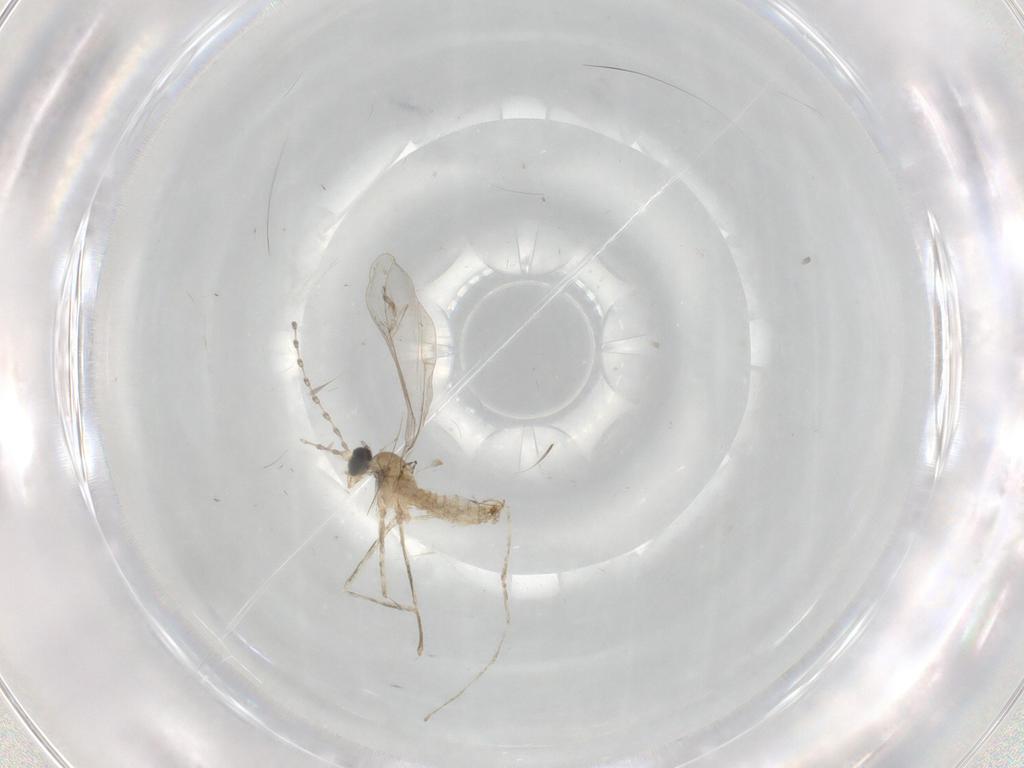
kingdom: Animalia
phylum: Arthropoda
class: Insecta
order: Diptera
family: Cecidomyiidae
